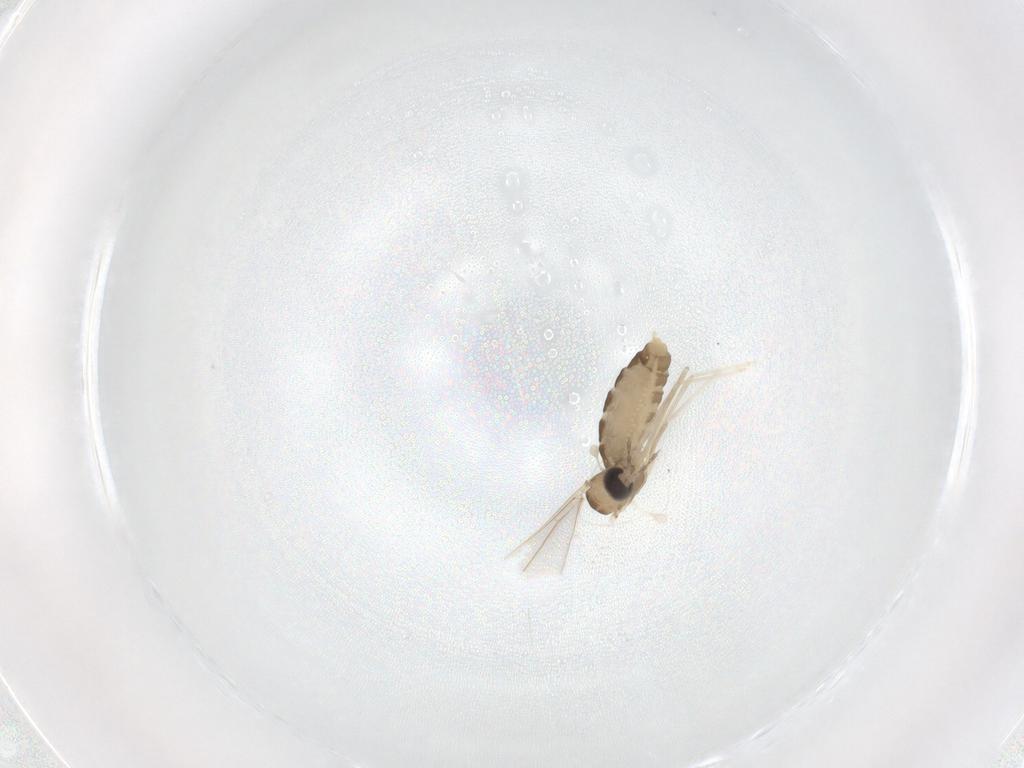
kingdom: Animalia
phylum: Arthropoda
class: Insecta
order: Diptera
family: Cecidomyiidae
